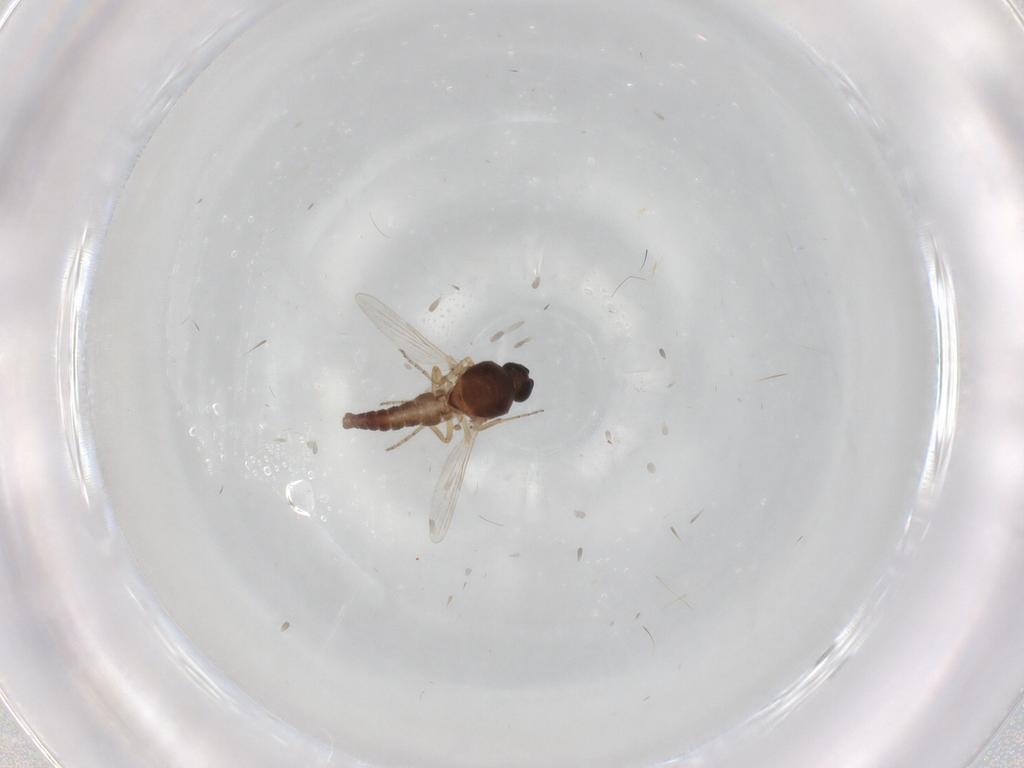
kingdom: Animalia
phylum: Arthropoda
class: Insecta
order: Diptera
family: Ceratopogonidae
